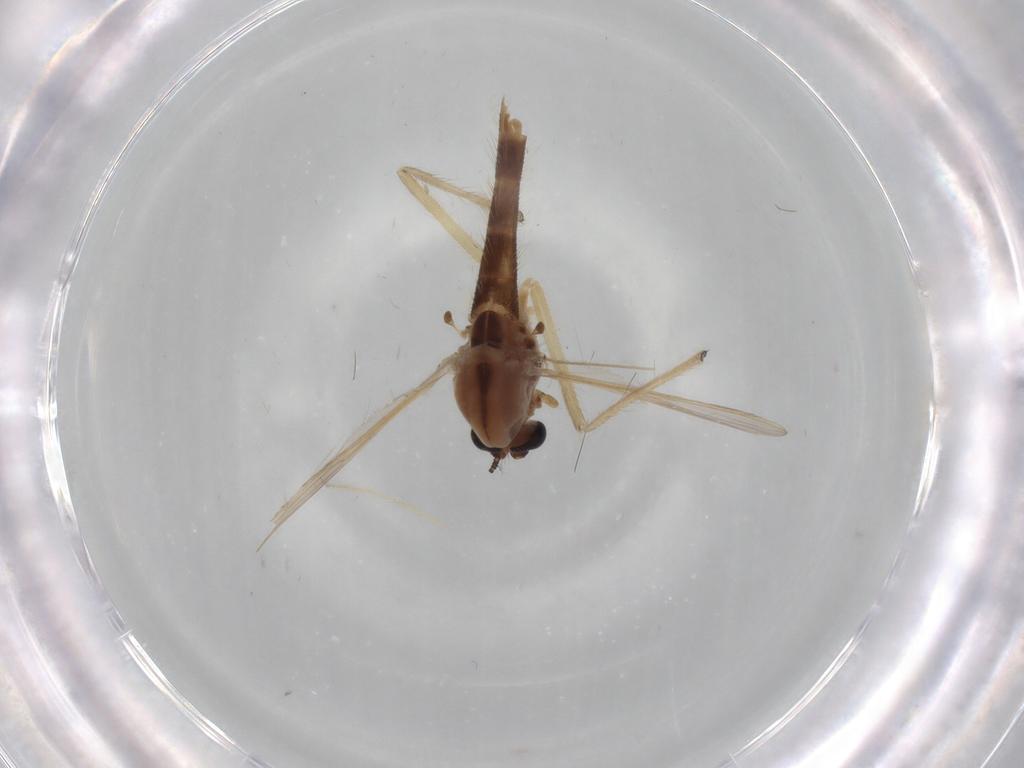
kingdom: Animalia
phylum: Arthropoda
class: Insecta
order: Diptera
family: Chironomidae
